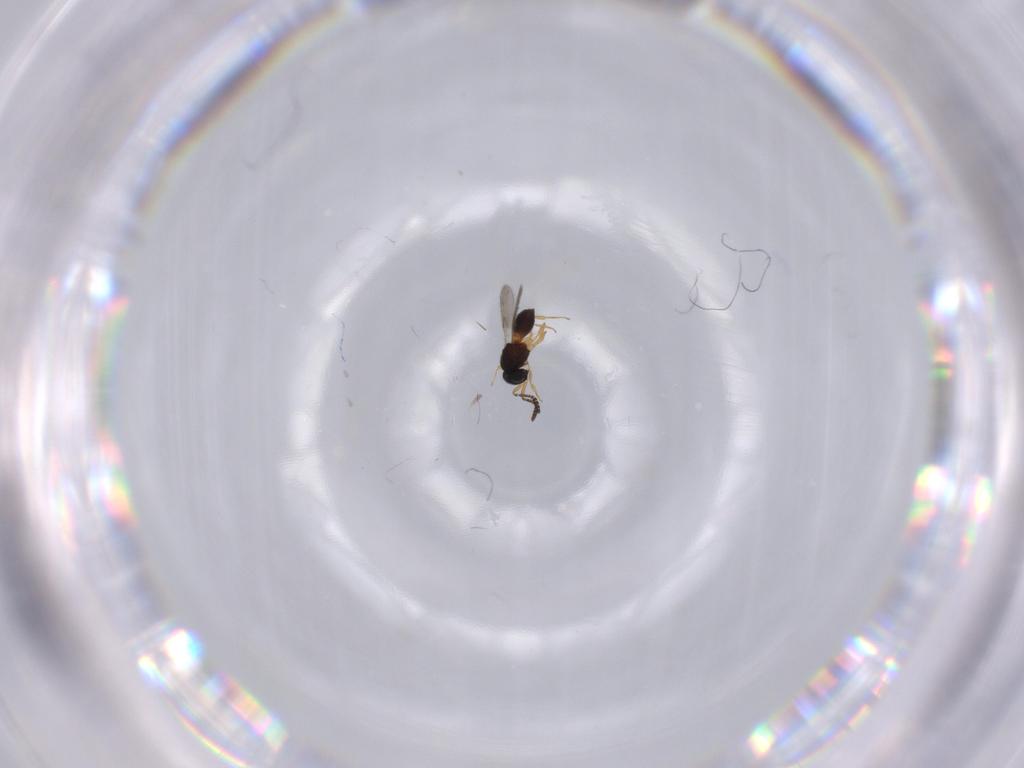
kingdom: Animalia
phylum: Arthropoda
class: Insecta
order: Hymenoptera
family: Scelionidae
